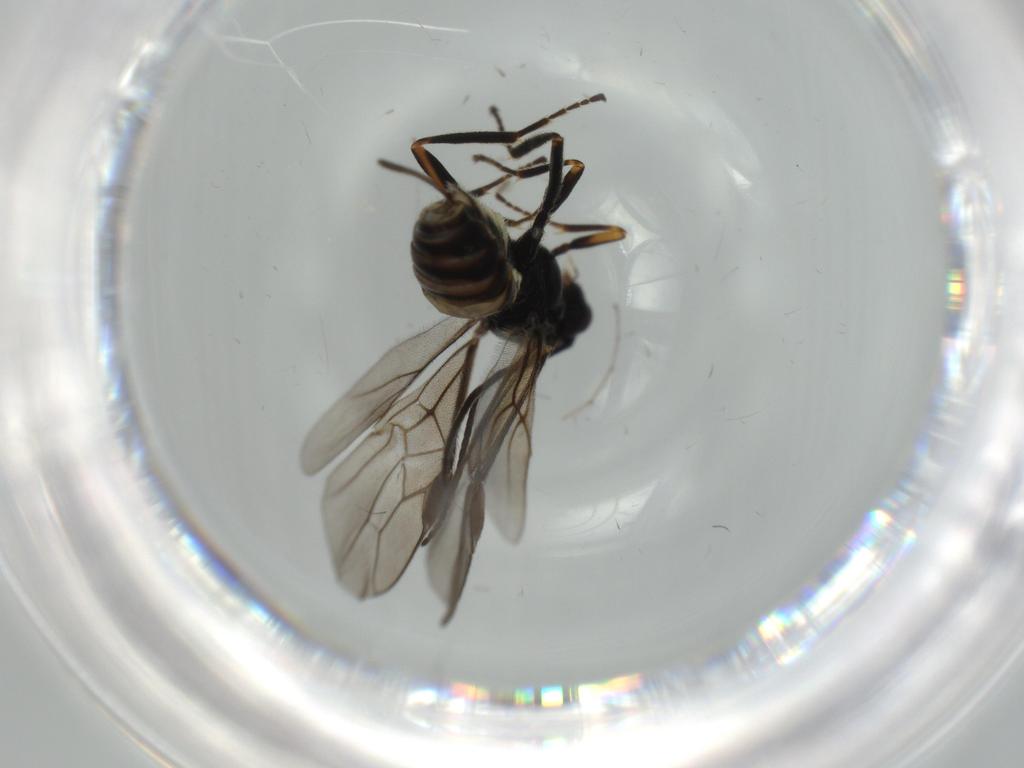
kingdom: Animalia
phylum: Arthropoda
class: Insecta
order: Hymenoptera
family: Braconidae
